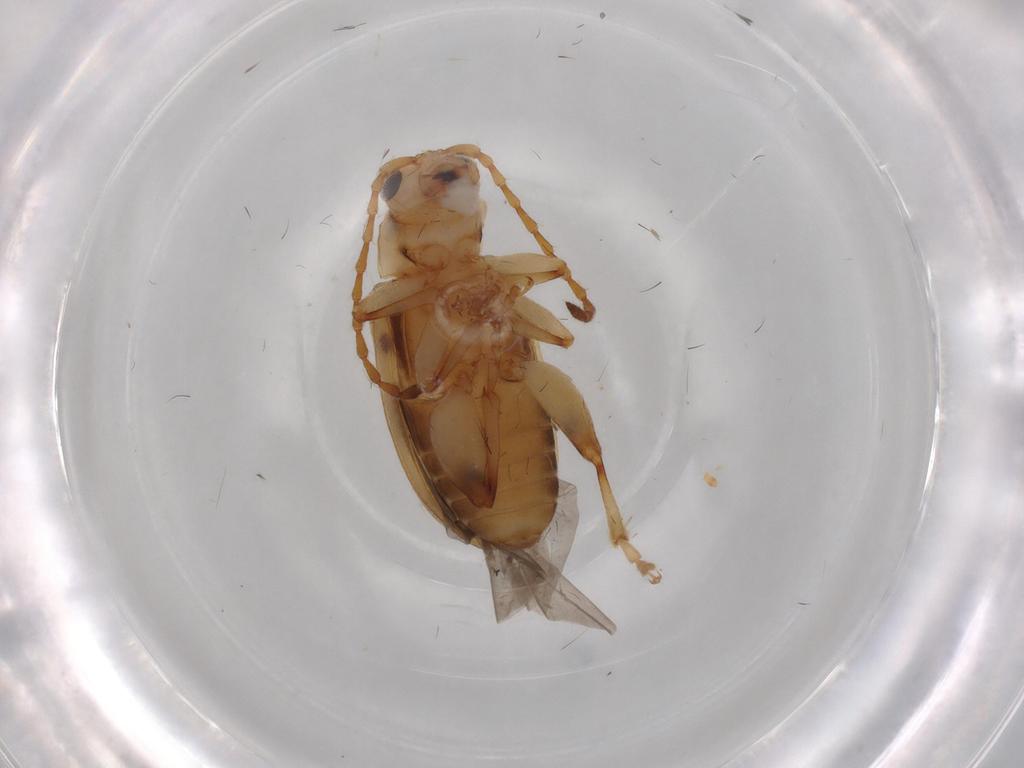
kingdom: Animalia
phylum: Arthropoda
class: Insecta
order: Coleoptera
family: Chrysomelidae
